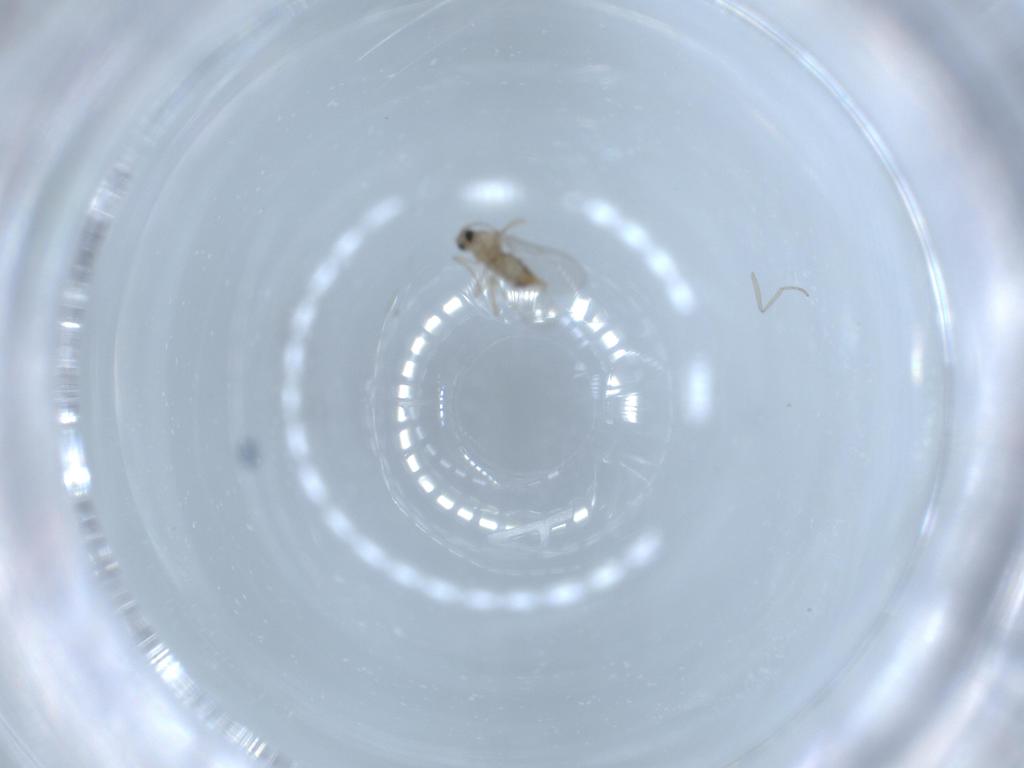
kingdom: Animalia
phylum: Arthropoda
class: Insecta
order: Diptera
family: Cecidomyiidae
